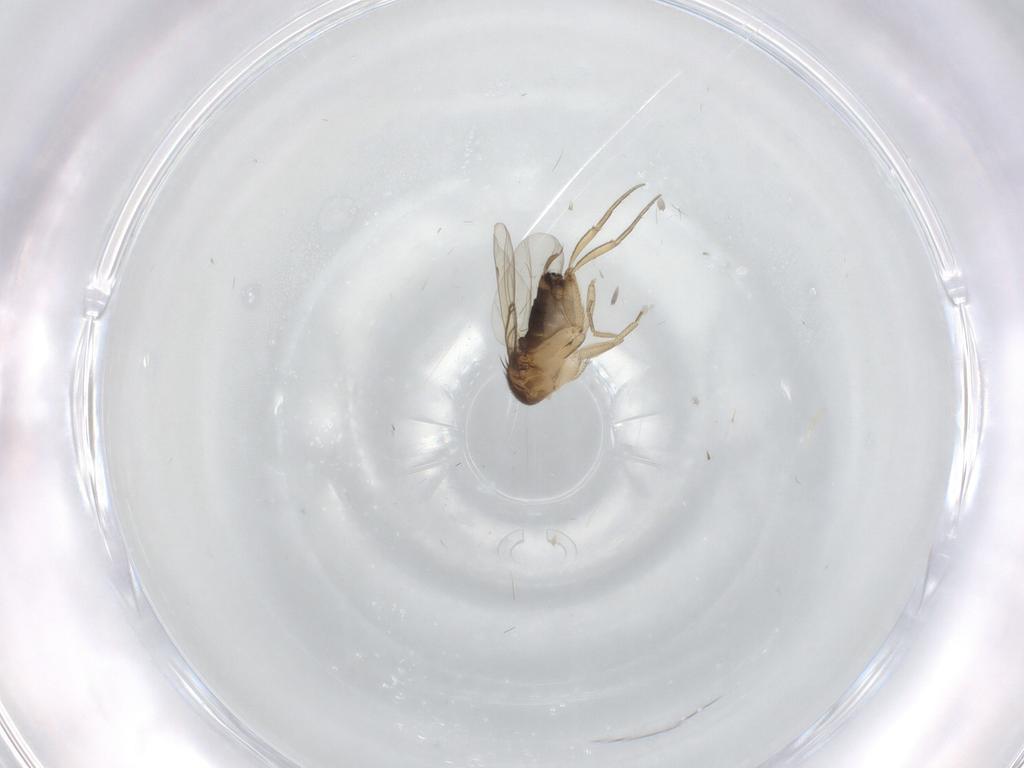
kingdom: Animalia
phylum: Arthropoda
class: Insecta
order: Diptera
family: Phoridae
